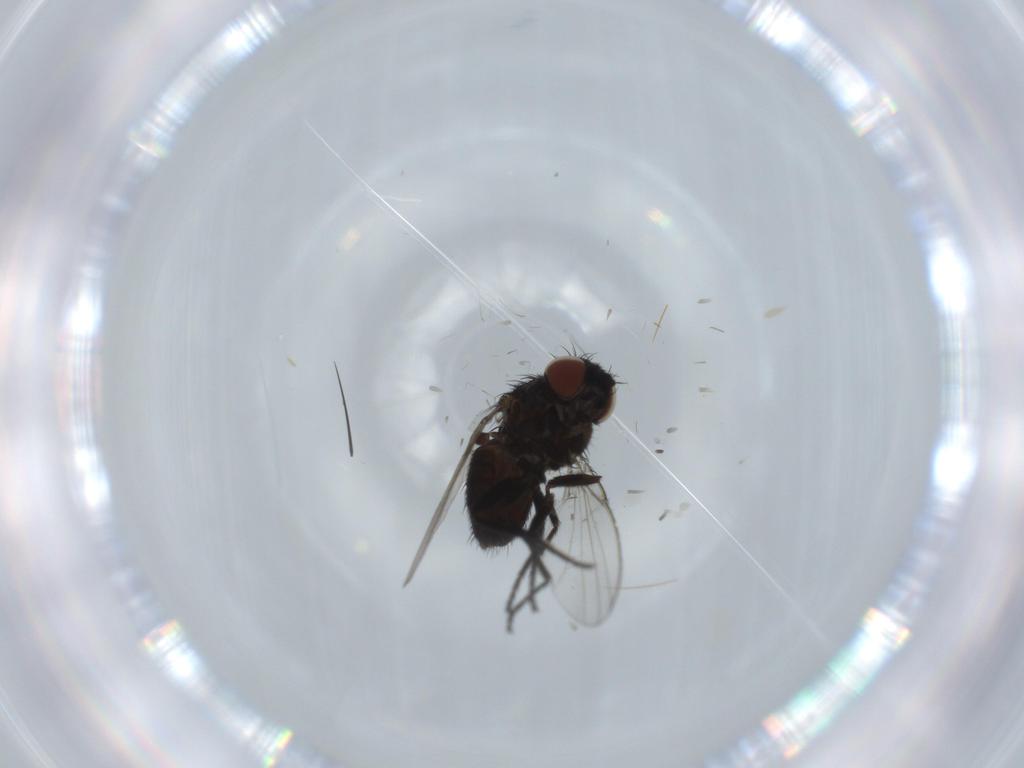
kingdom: Animalia
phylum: Arthropoda
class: Insecta
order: Diptera
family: Milichiidae
